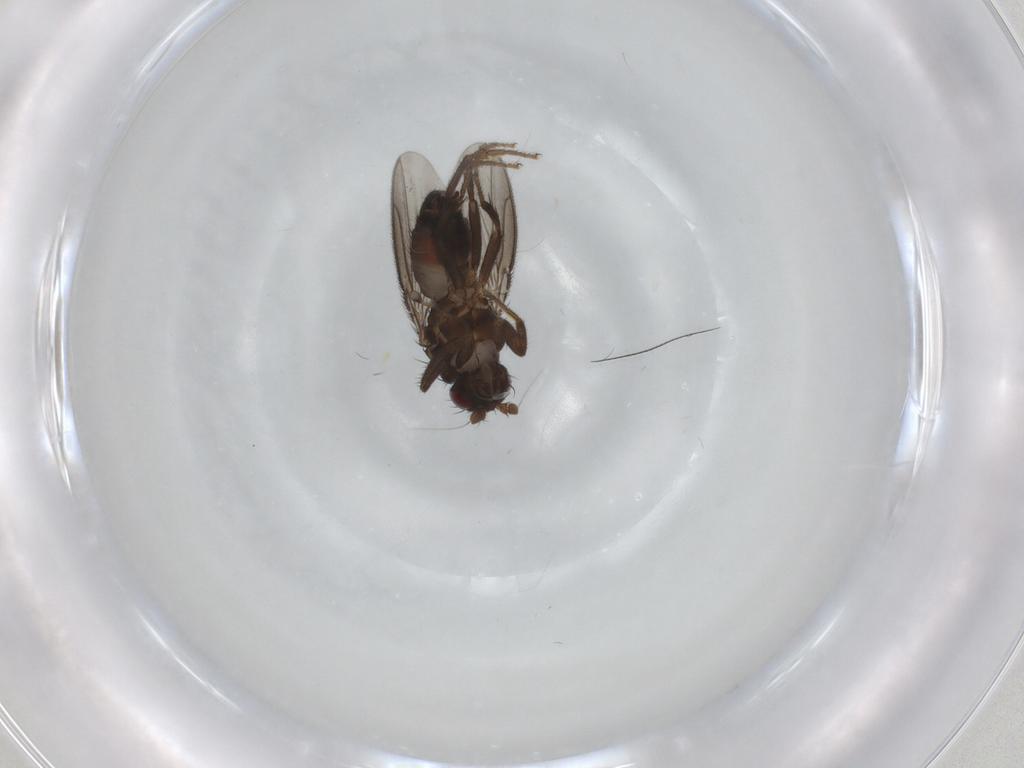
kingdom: Animalia
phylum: Arthropoda
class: Insecta
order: Diptera
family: Sphaeroceridae
